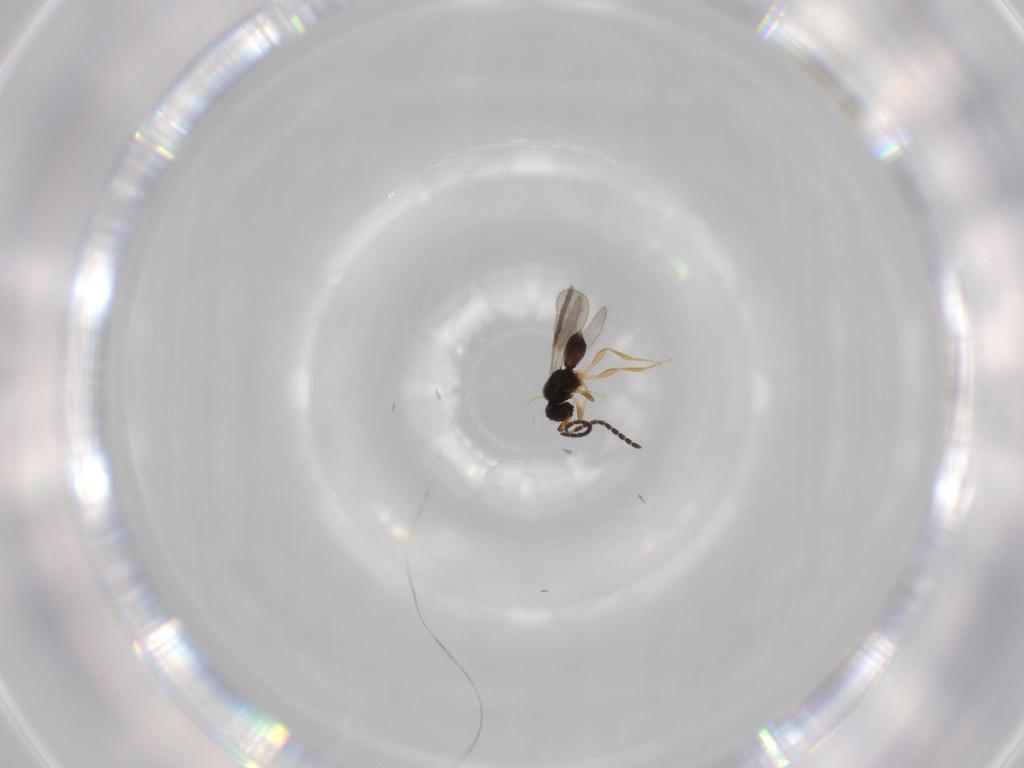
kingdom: Animalia
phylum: Arthropoda
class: Insecta
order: Hymenoptera
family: Ceraphronidae
